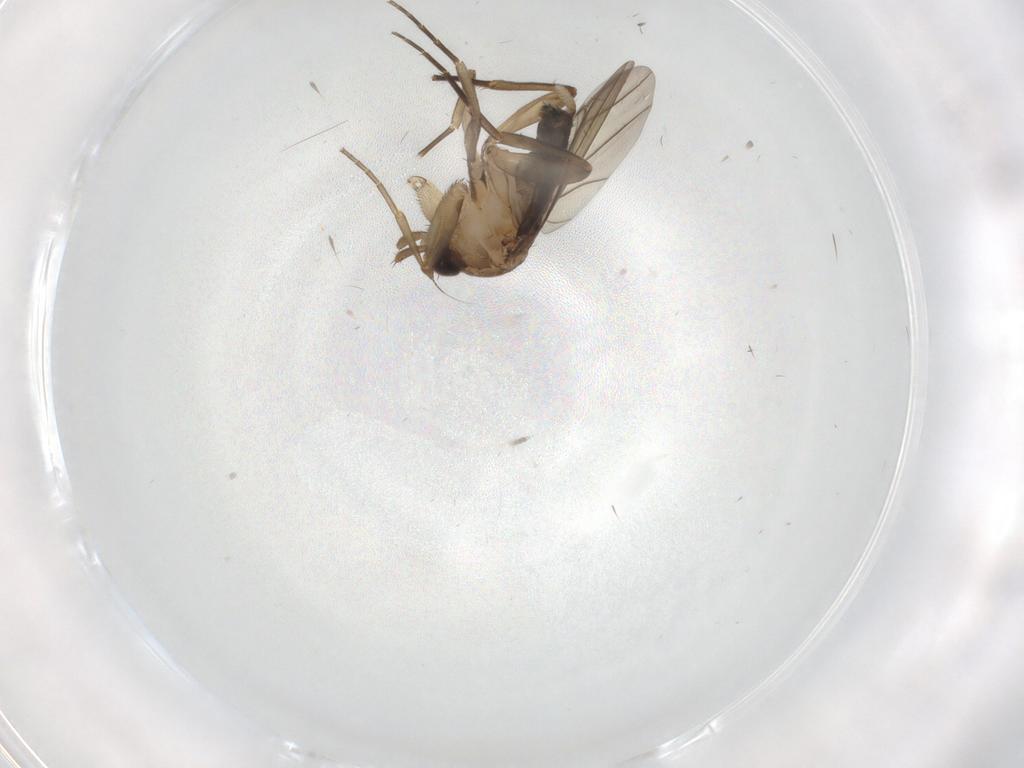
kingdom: Animalia
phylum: Arthropoda
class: Insecta
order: Diptera
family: Phoridae
